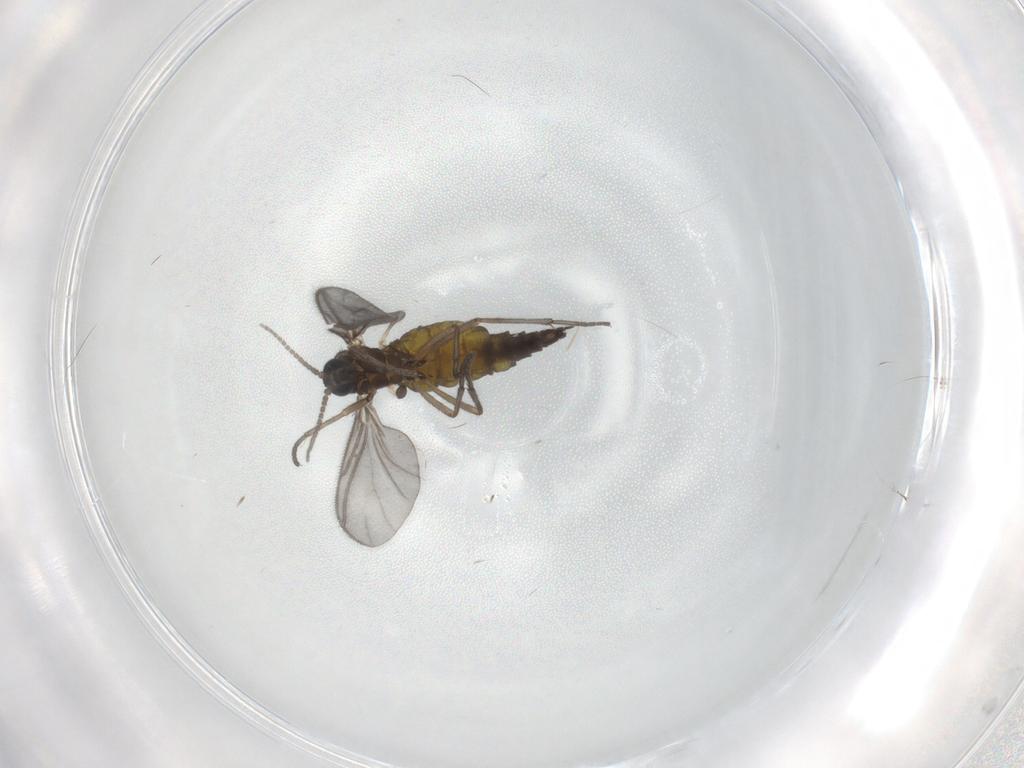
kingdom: Animalia
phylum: Arthropoda
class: Insecta
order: Diptera
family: Sciaridae
